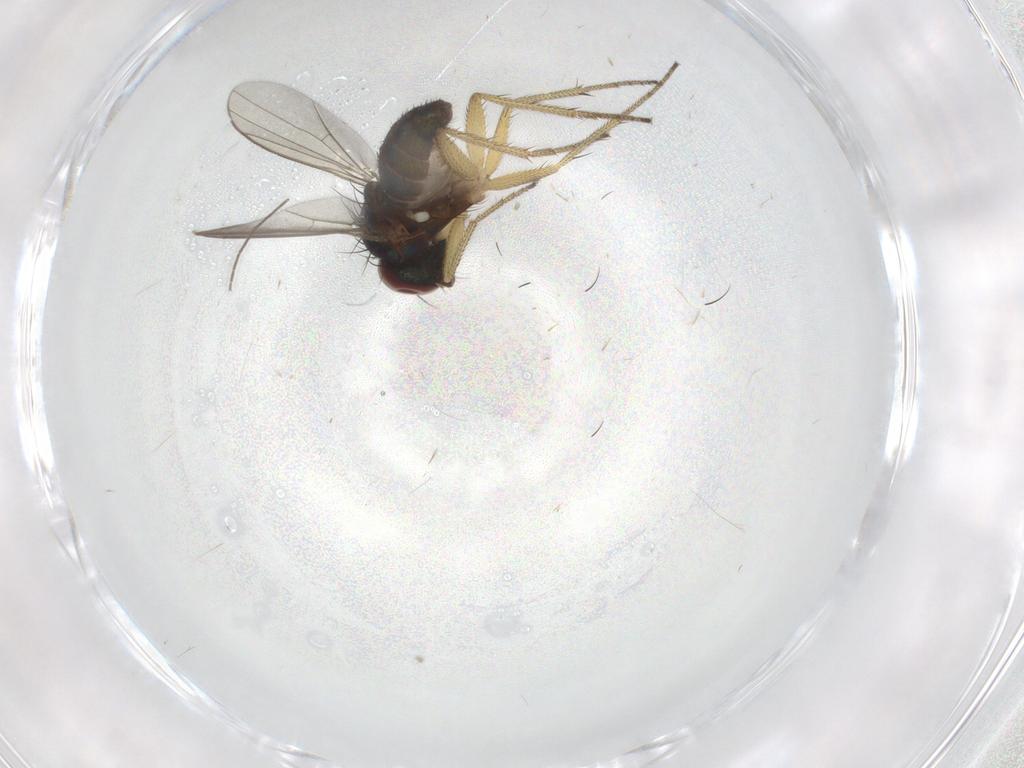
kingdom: Animalia
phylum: Arthropoda
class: Insecta
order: Diptera
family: Dolichopodidae
